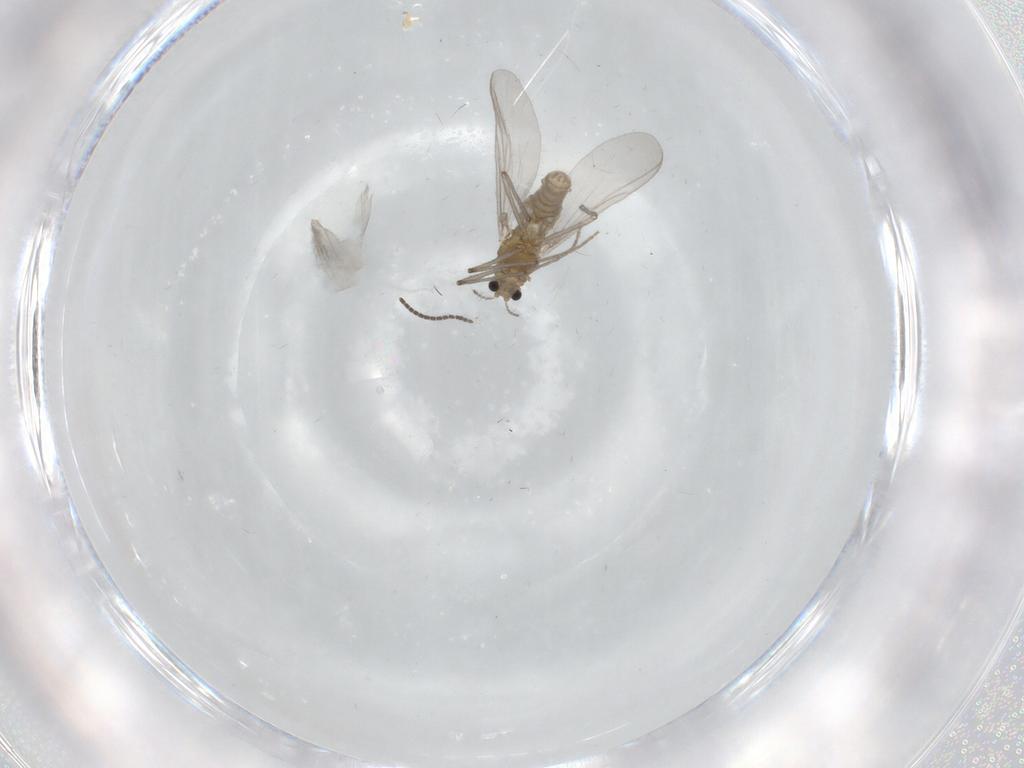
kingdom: Animalia
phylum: Arthropoda
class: Insecta
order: Diptera
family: Chironomidae
